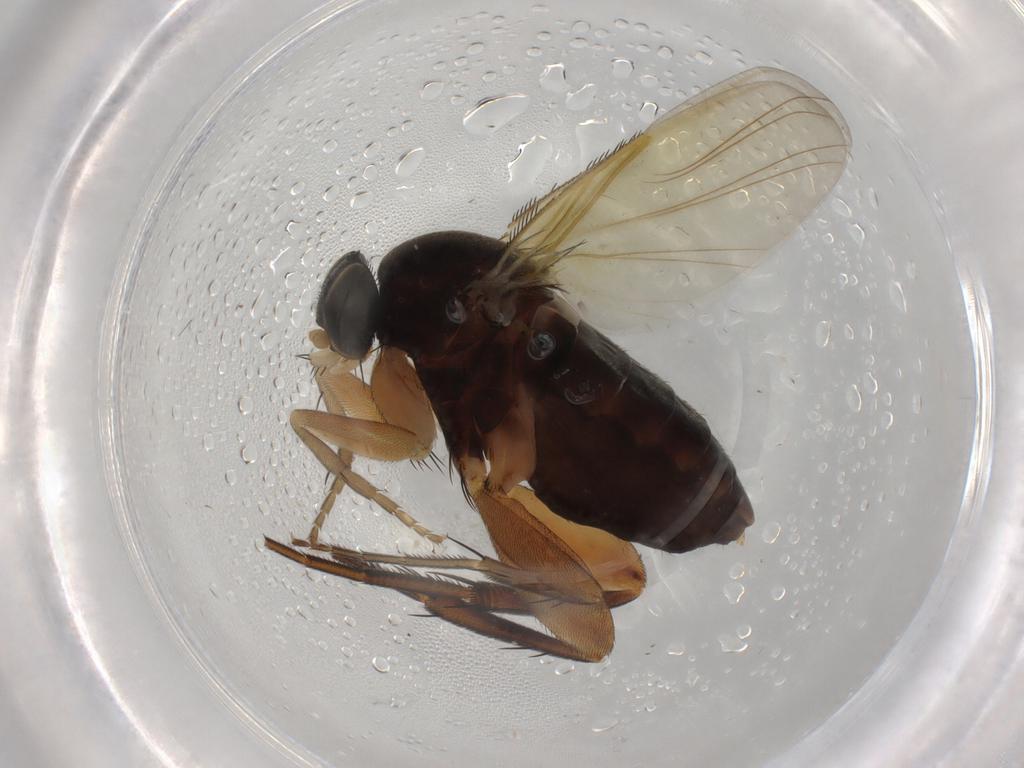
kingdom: Animalia
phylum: Arthropoda
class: Insecta
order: Diptera
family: Phoridae
